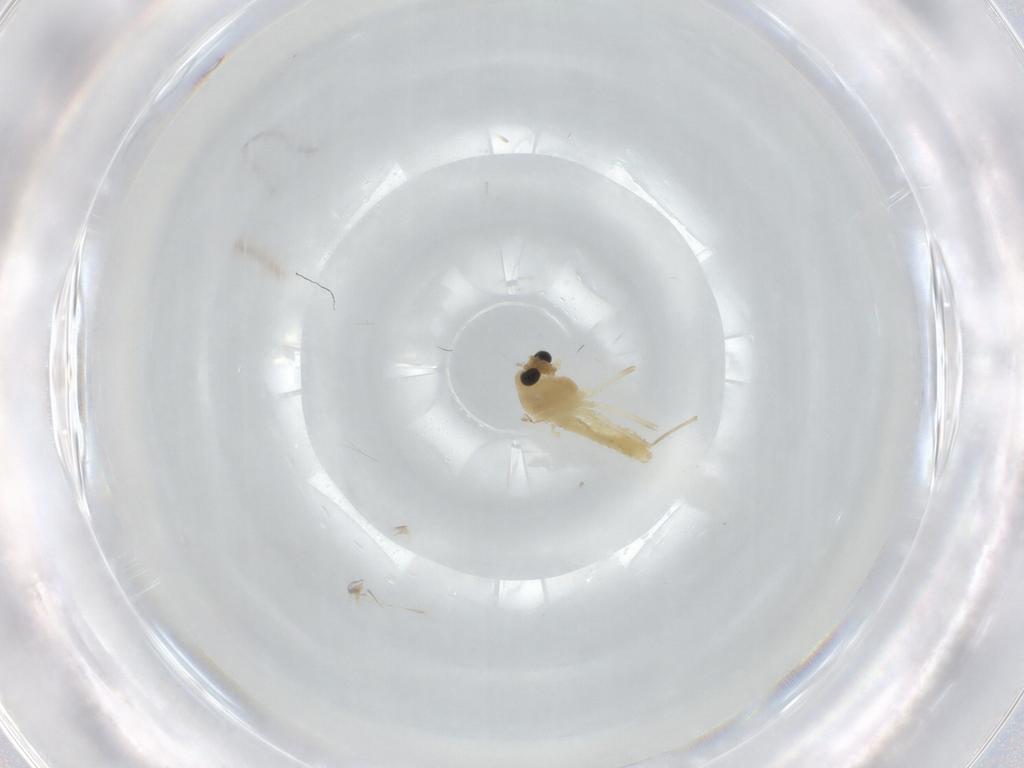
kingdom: Animalia
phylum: Arthropoda
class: Insecta
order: Diptera
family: Chironomidae
